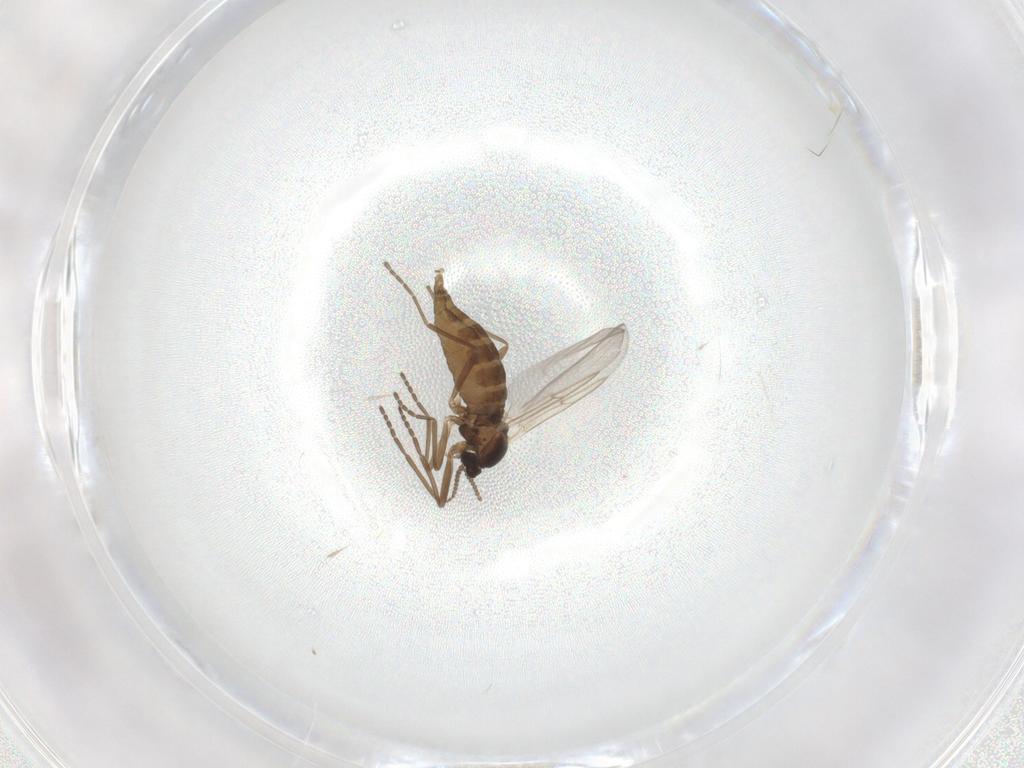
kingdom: Animalia
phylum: Arthropoda
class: Insecta
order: Diptera
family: Cecidomyiidae
